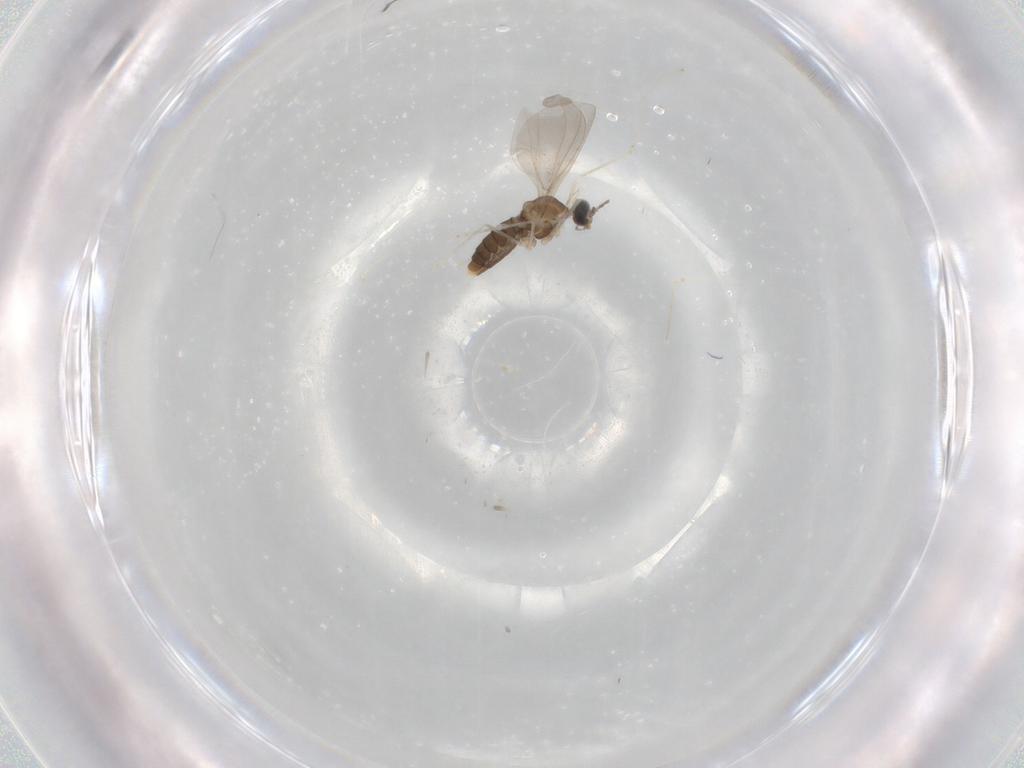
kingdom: Animalia
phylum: Arthropoda
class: Insecta
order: Diptera
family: Cecidomyiidae
